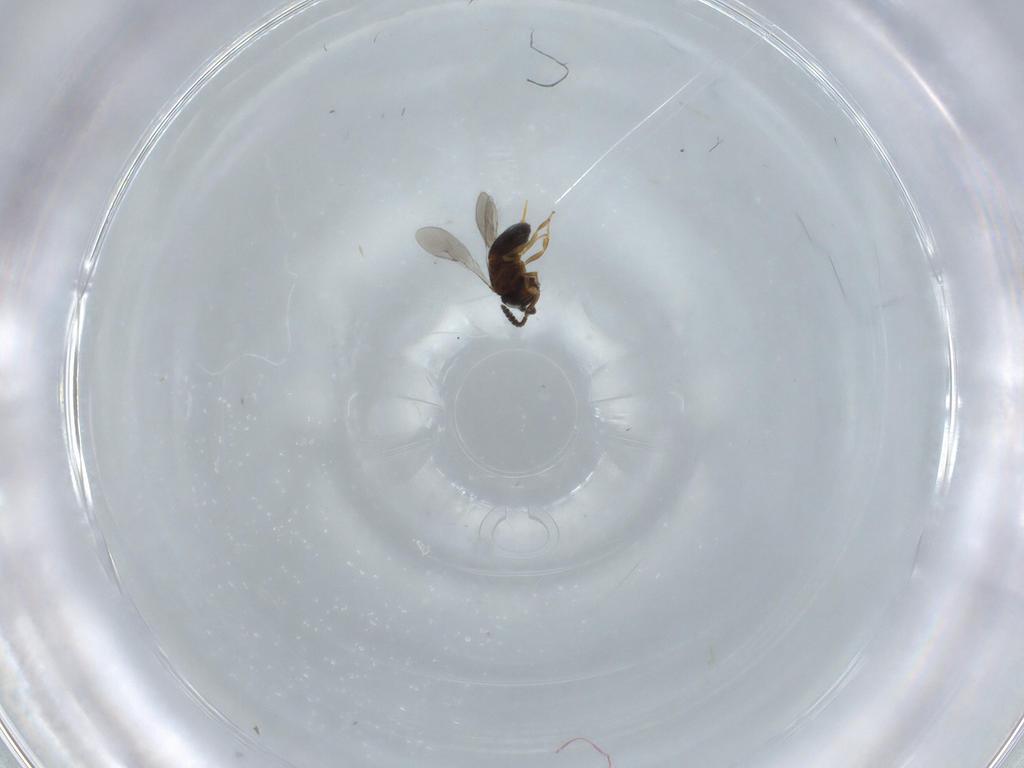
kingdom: Animalia
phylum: Arthropoda
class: Insecta
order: Hymenoptera
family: Scelionidae
